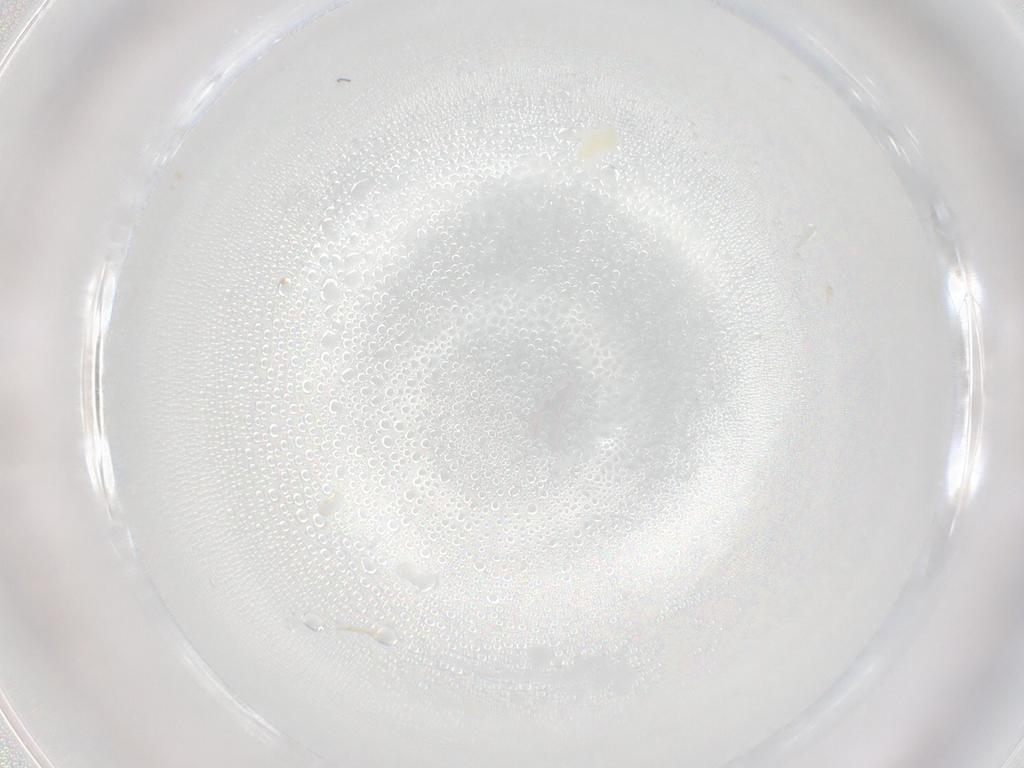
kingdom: Animalia
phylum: Arthropoda
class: Arachnida
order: Trombidiformes
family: Eupodidae
